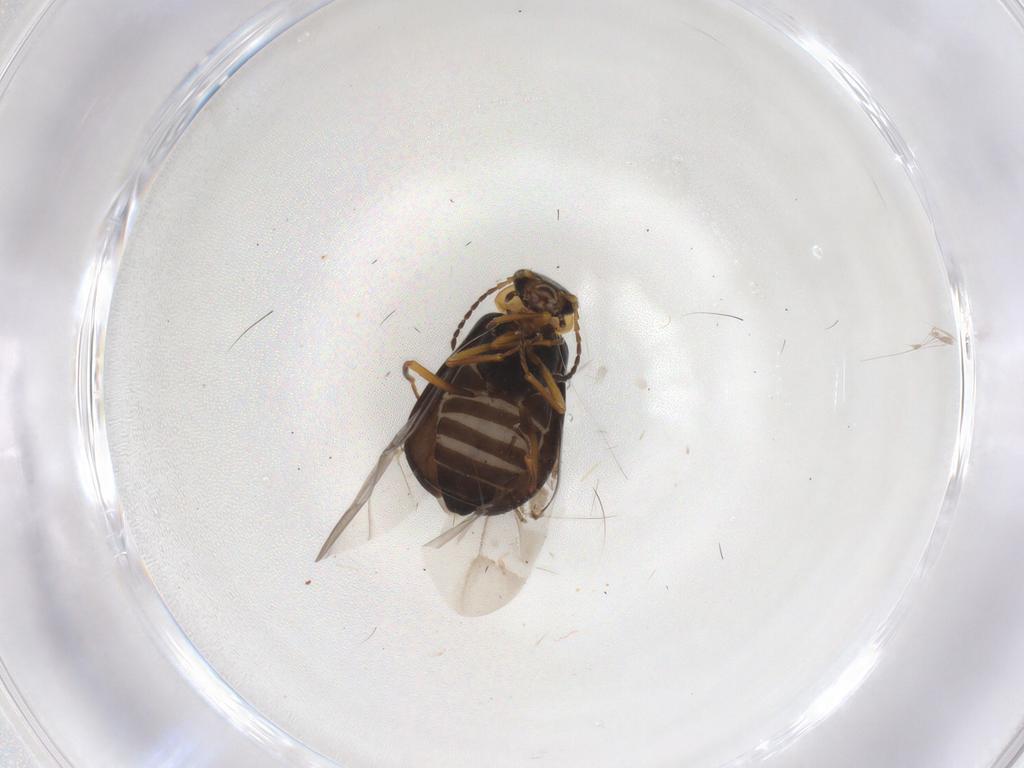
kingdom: Animalia
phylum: Arthropoda
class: Insecta
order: Coleoptera
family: Melyridae
